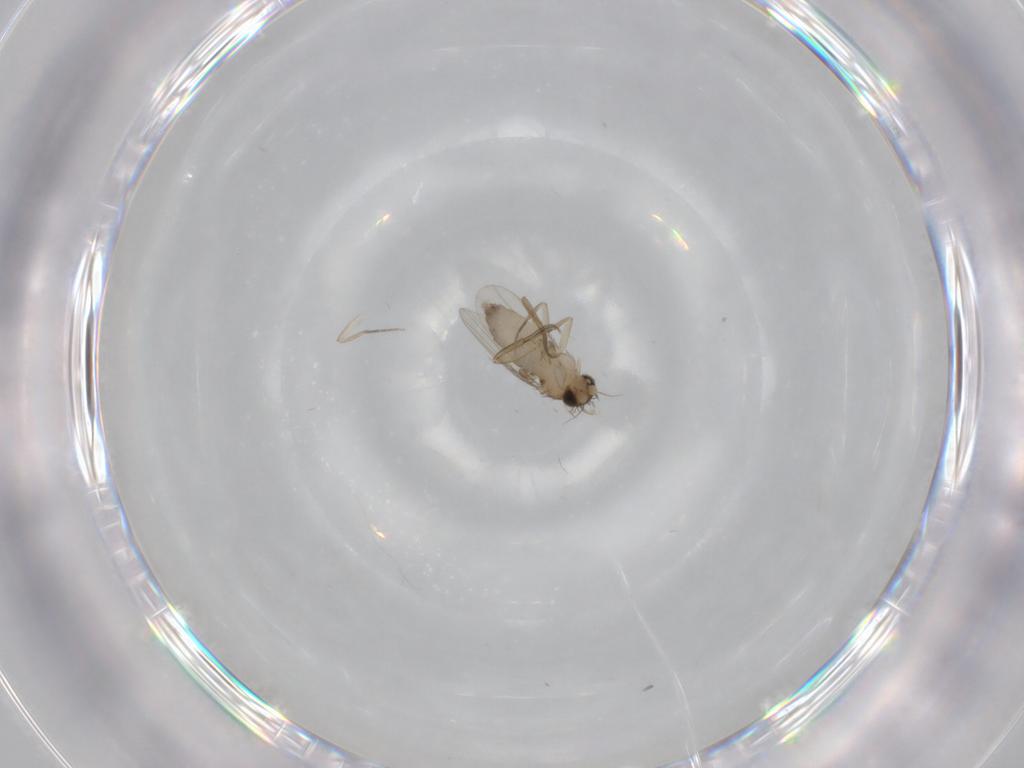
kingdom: Animalia
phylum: Arthropoda
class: Insecta
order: Diptera
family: Phoridae
